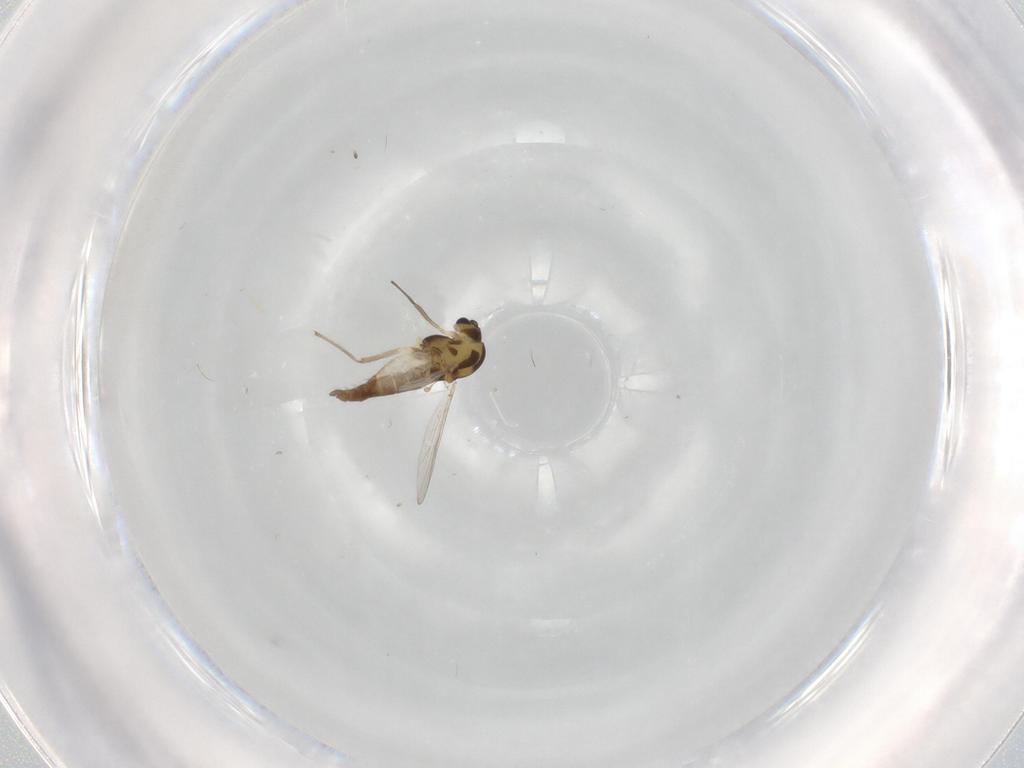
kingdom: Animalia
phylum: Arthropoda
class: Insecta
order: Diptera
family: Chironomidae
